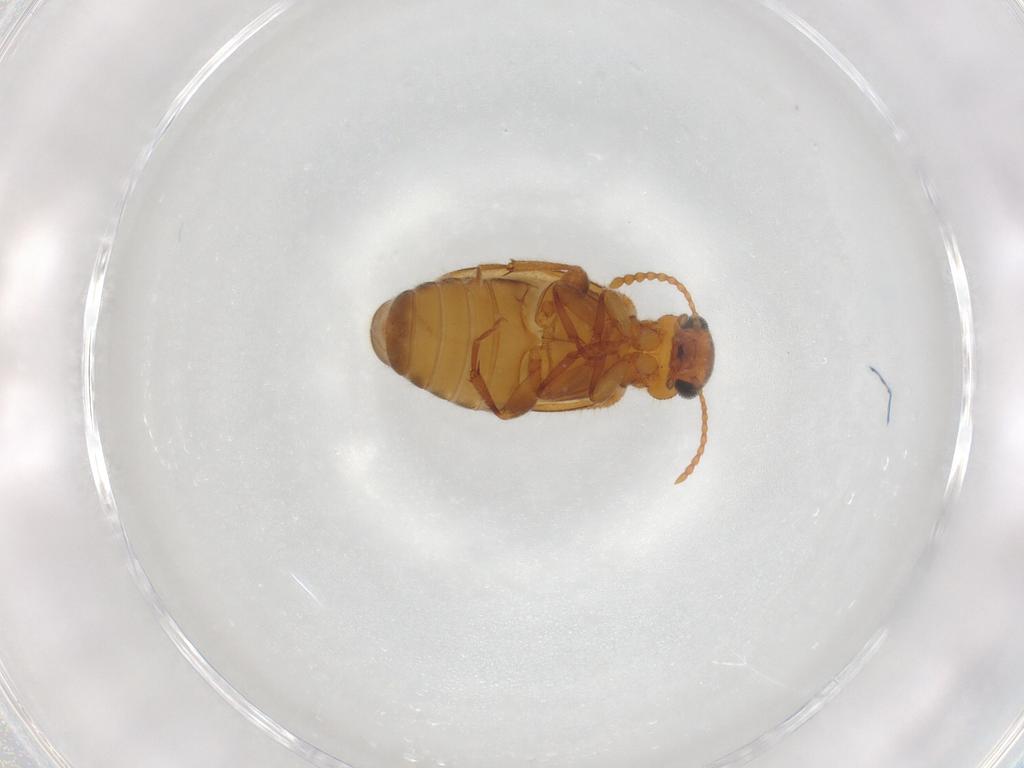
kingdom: Animalia
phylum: Arthropoda
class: Insecta
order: Coleoptera
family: Anthicidae
